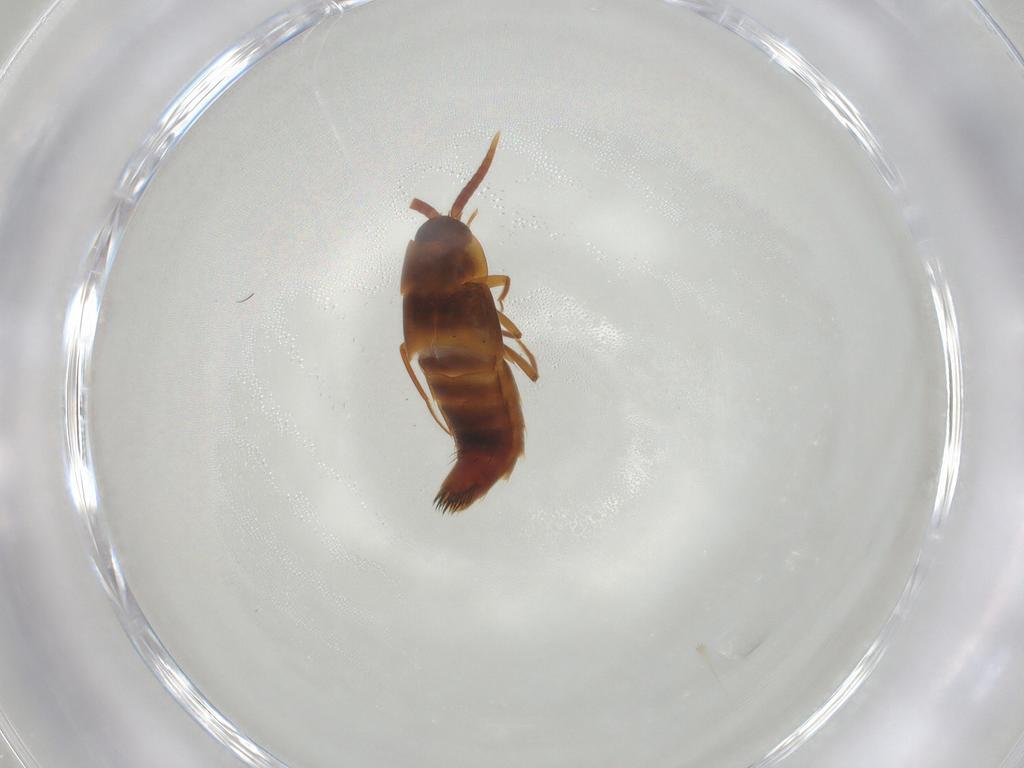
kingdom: Animalia
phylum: Arthropoda
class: Insecta
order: Coleoptera
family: Staphylinidae
